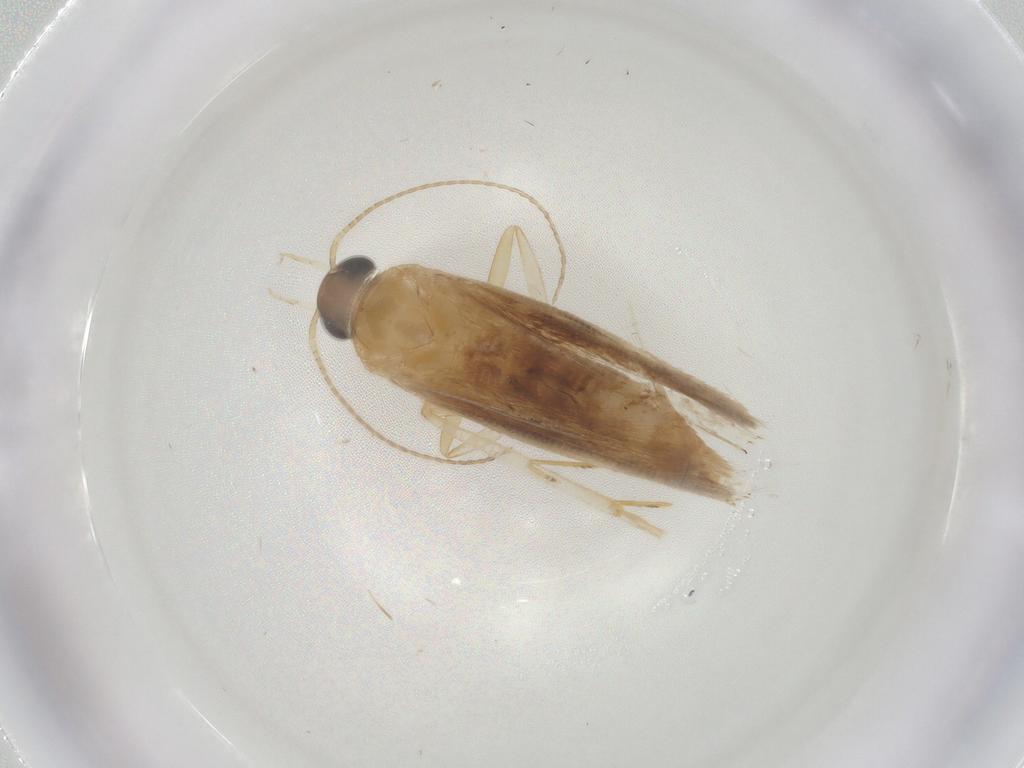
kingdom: Animalia
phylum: Arthropoda
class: Insecta
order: Lepidoptera
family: Gelechiidae
